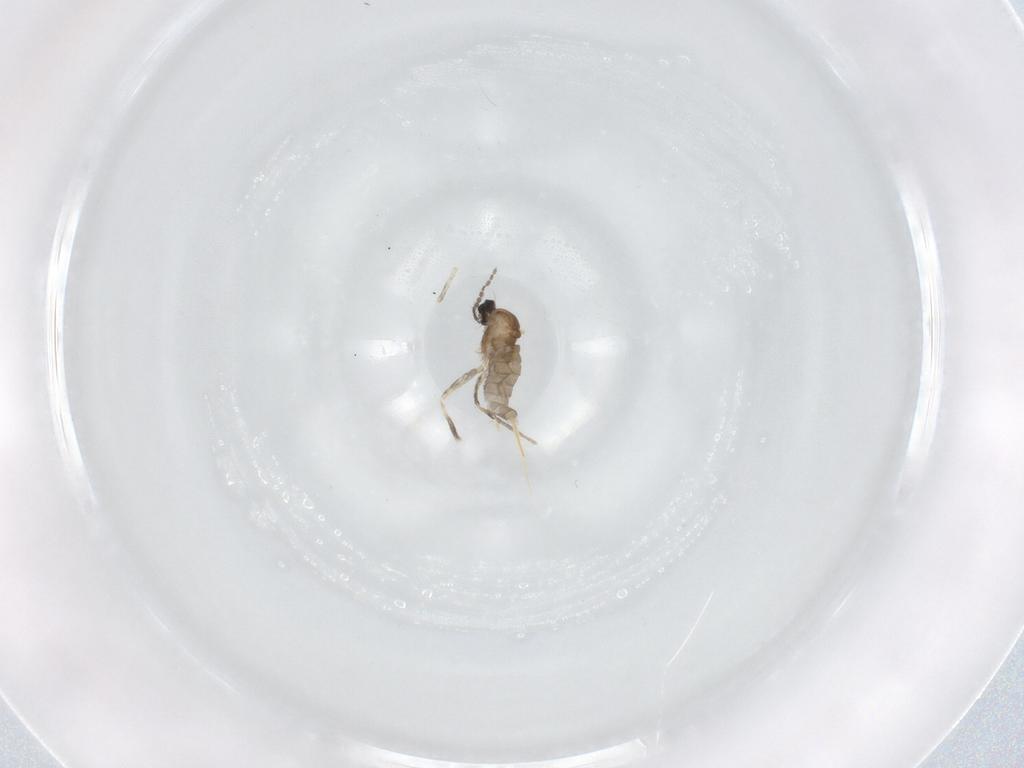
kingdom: Animalia
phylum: Arthropoda
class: Insecta
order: Diptera
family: Cecidomyiidae
